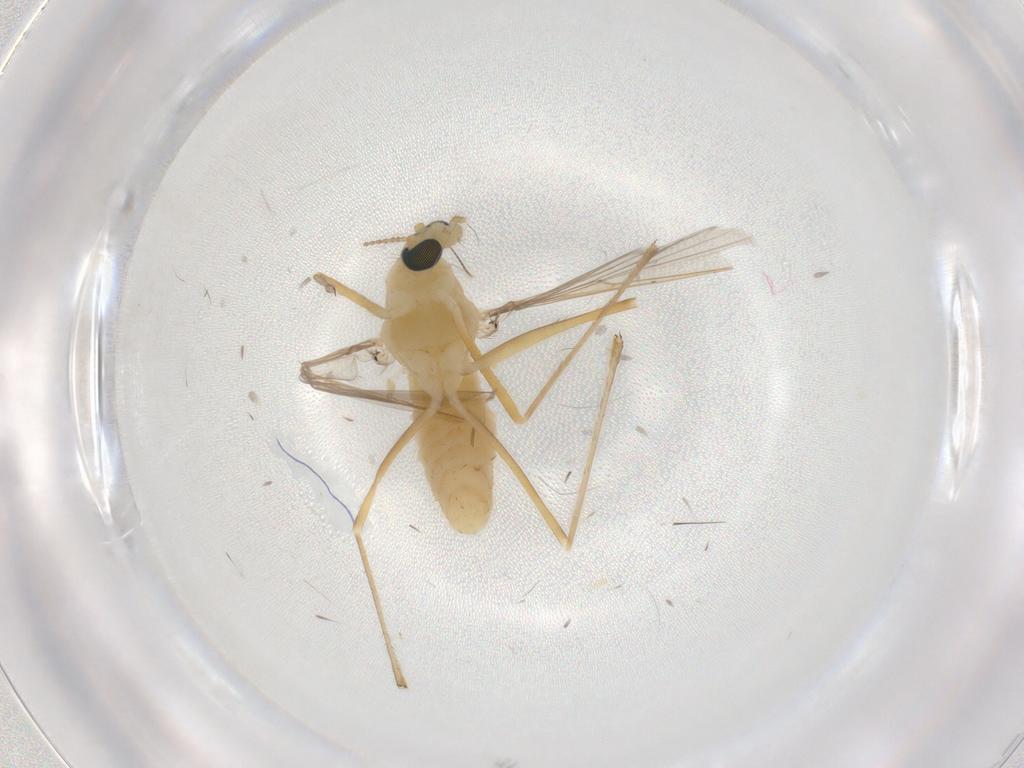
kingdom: Animalia
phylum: Arthropoda
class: Insecta
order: Diptera
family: Chironomidae
